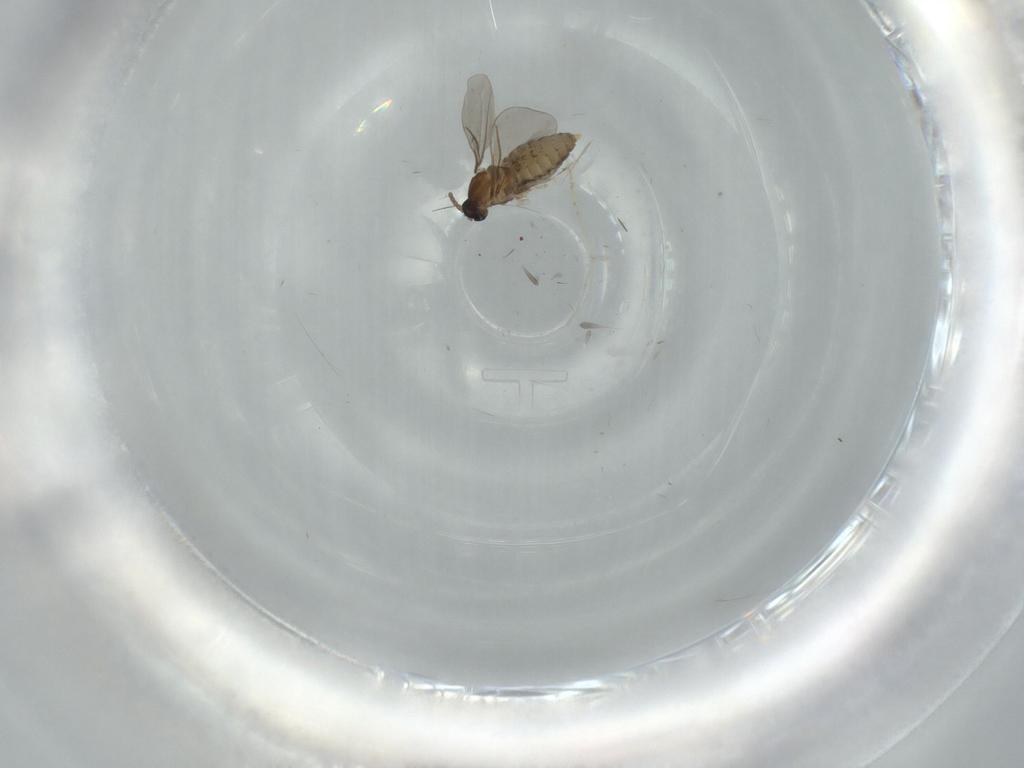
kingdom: Animalia
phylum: Arthropoda
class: Insecta
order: Diptera
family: Cecidomyiidae
